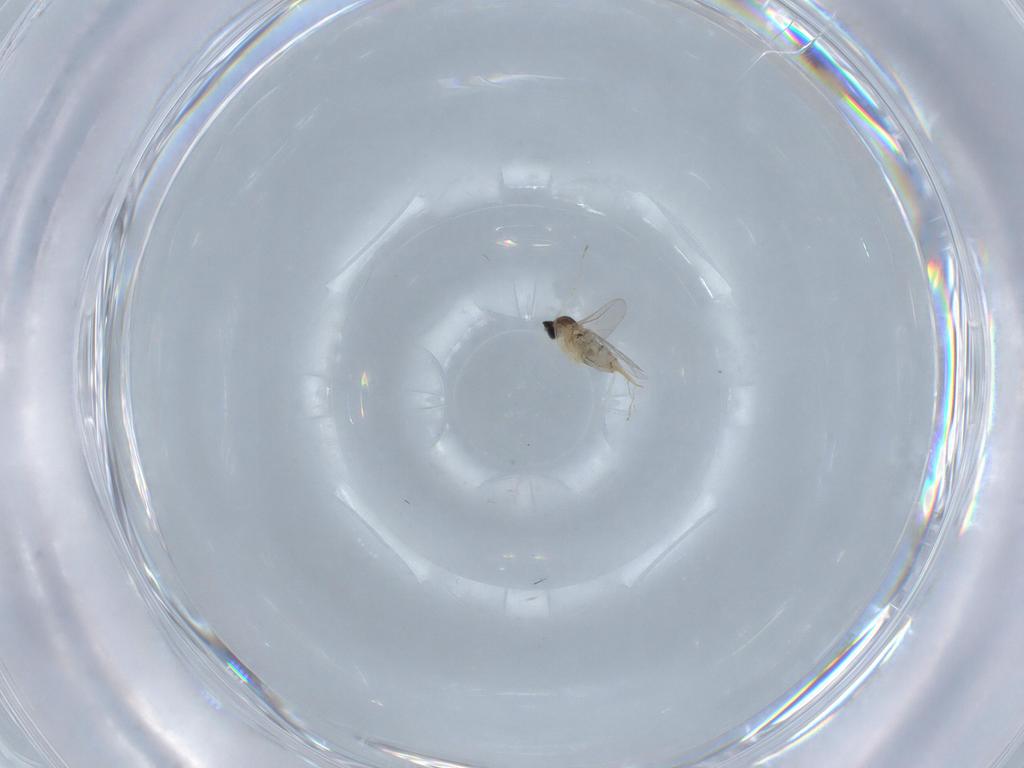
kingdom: Animalia
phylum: Arthropoda
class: Insecta
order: Diptera
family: Cecidomyiidae
